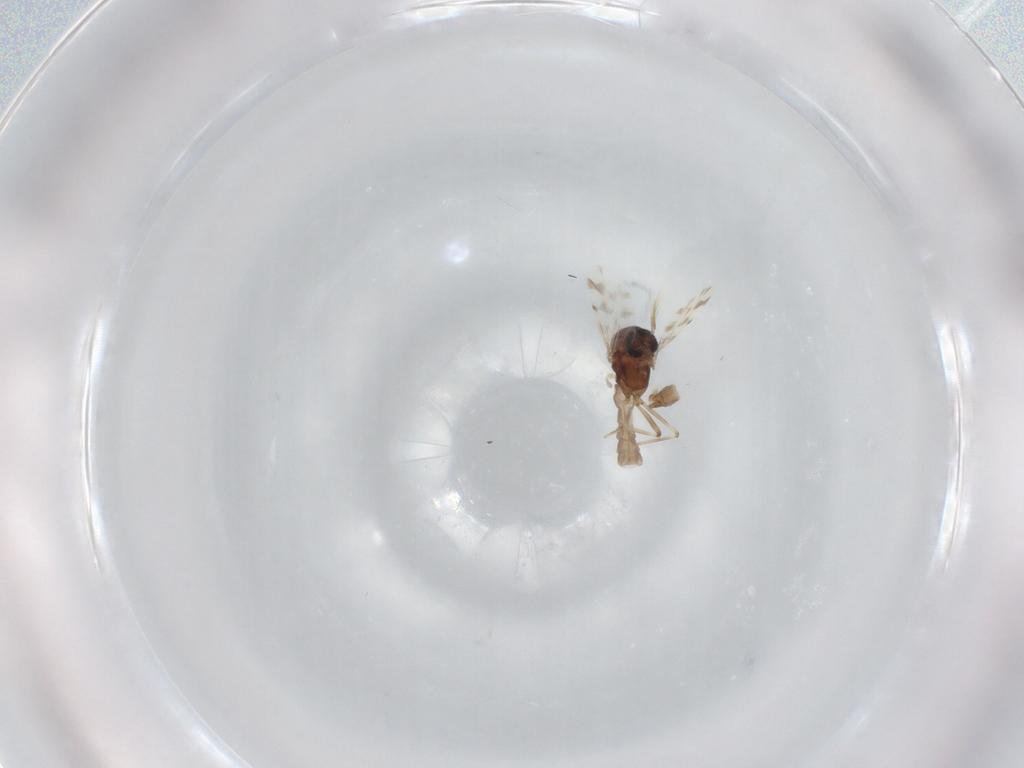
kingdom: Animalia
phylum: Arthropoda
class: Insecta
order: Diptera
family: Ceratopogonidae
